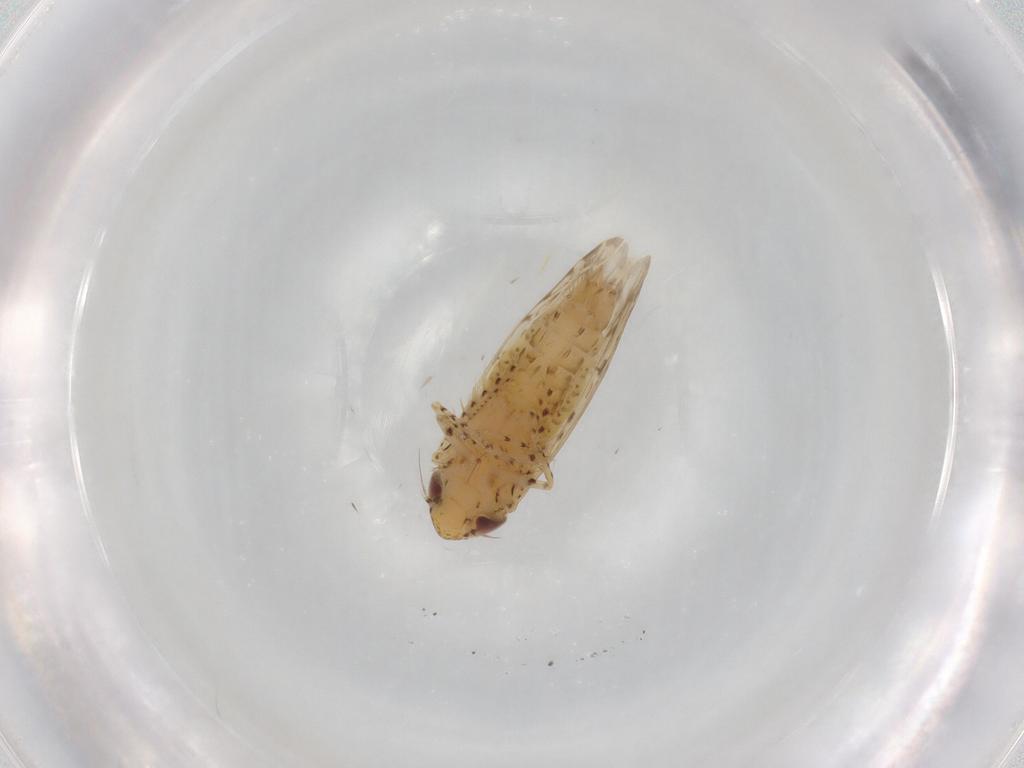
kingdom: Animalia
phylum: Arthropoda
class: Insecta
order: Hemiptera
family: Cicadellidae
